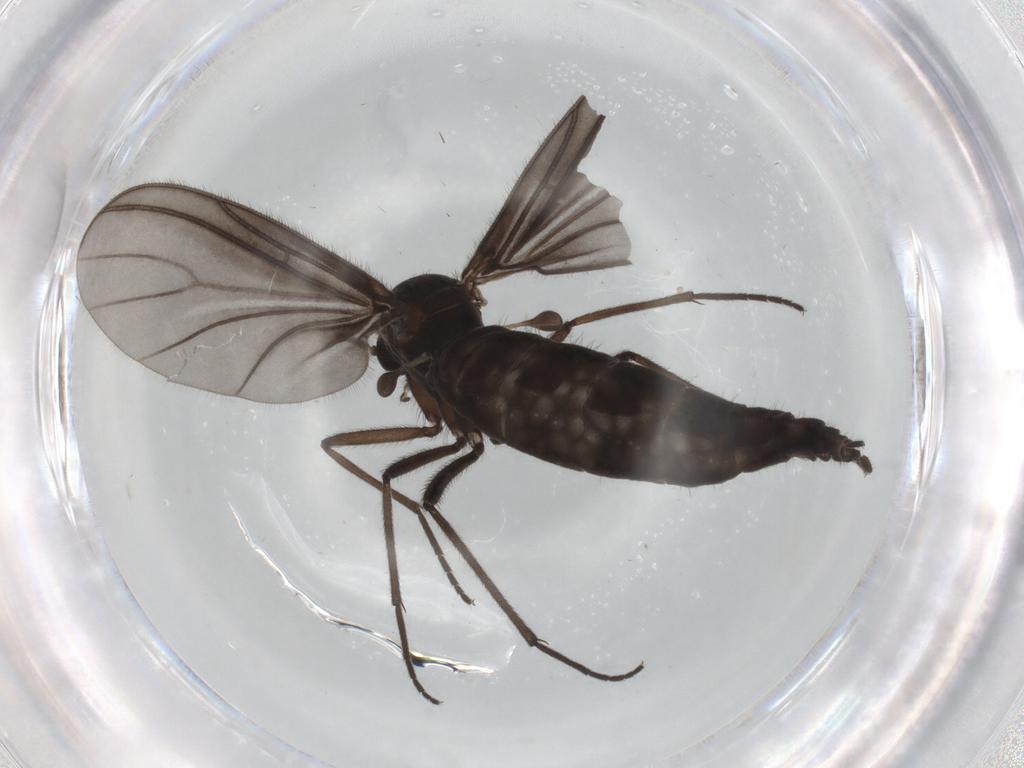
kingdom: Animalia
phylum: Arthropoda
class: Insecta
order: Diptera
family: Sciaridae
